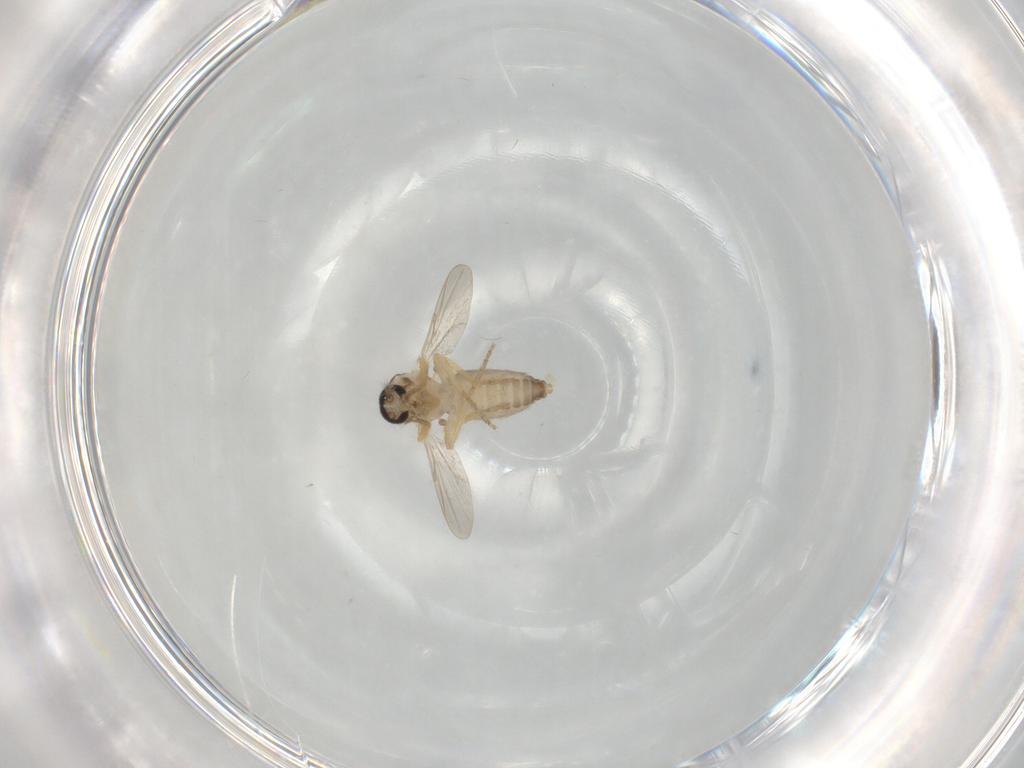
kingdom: Animalia
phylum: Arthropoda
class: Insecta
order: Diptera
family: Ceratopogonidae
